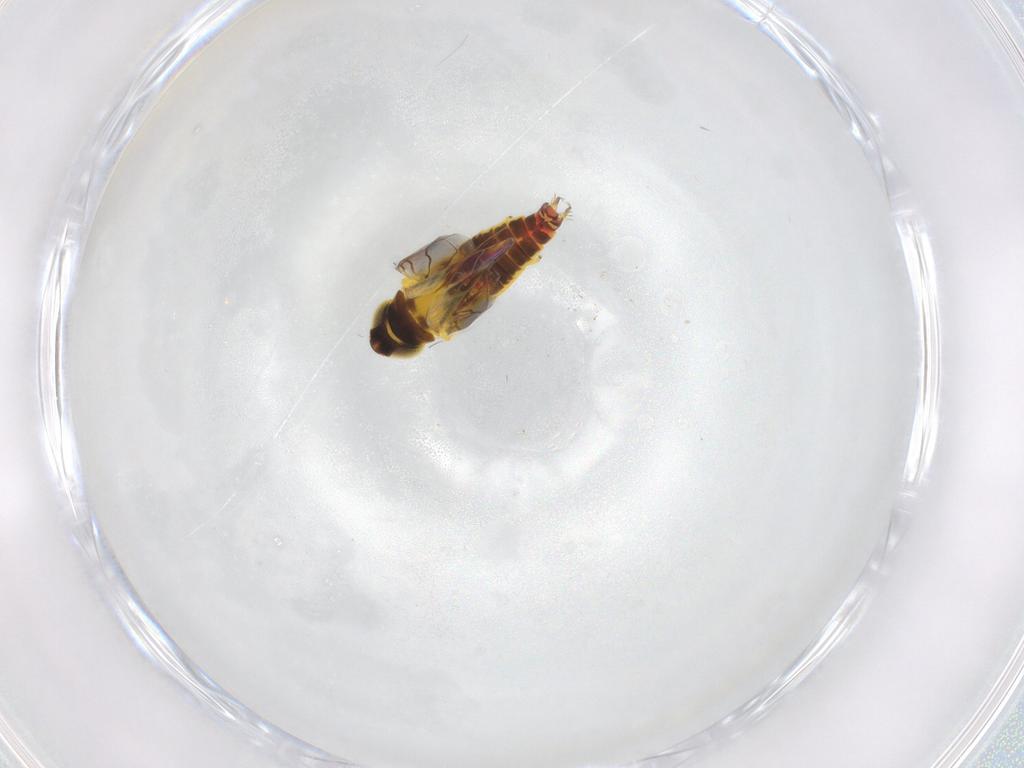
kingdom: Animalia
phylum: Arthropoda
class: Insecta
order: Hemiptera
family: Cicadellidae
